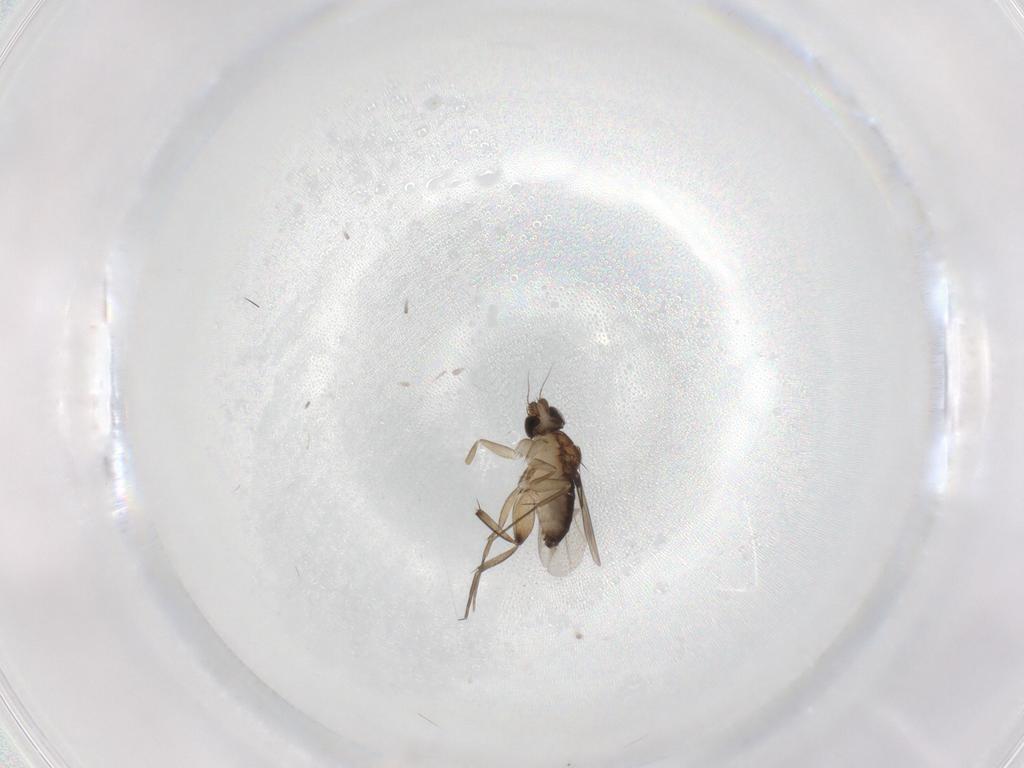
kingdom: Animalia
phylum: Arthropoda
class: Insecta
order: Diptera
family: Phoridae
